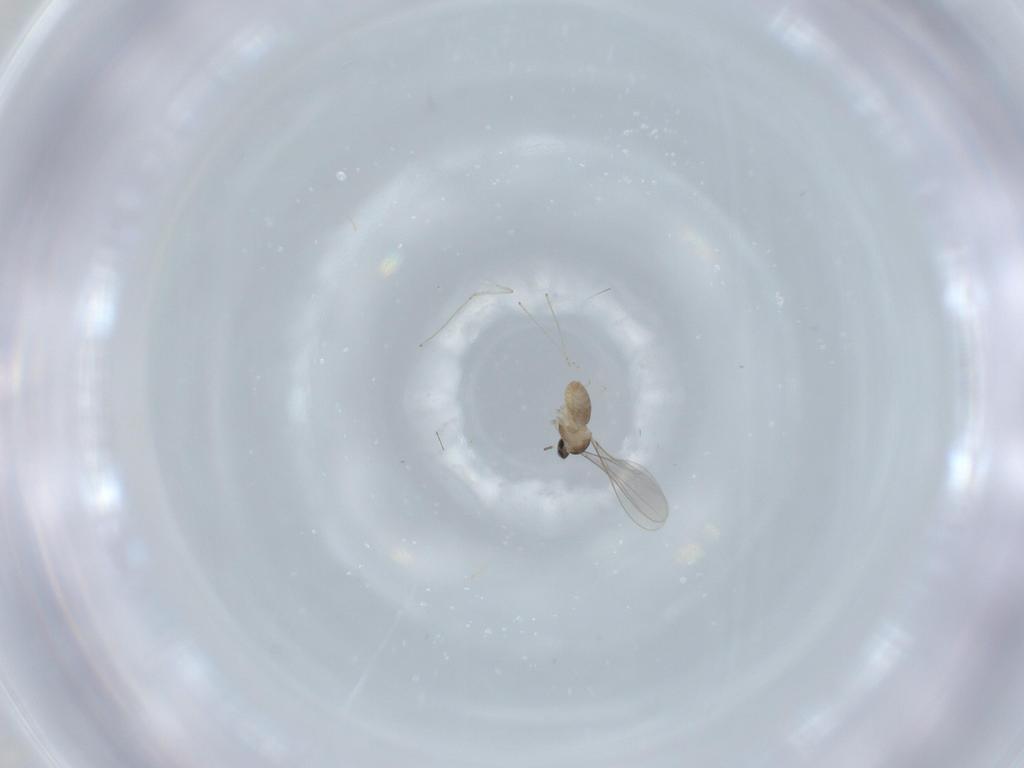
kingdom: Animalia
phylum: Arthropoda
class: Insecta
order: Diptera
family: Cecidomyiidae
